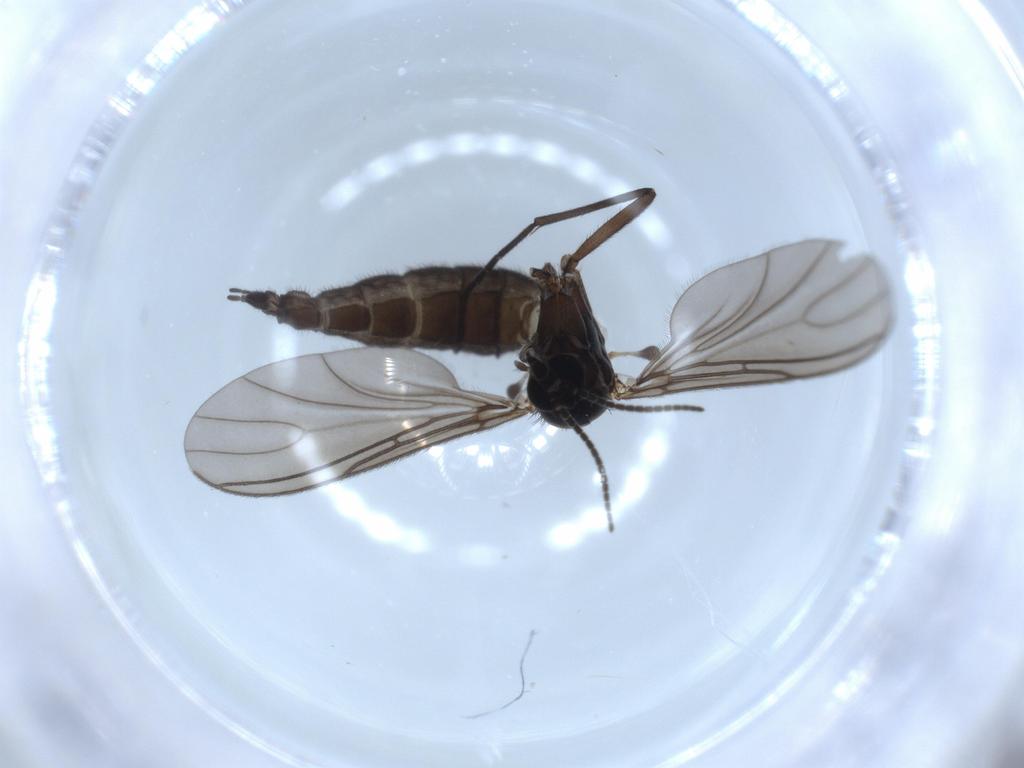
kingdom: Animalia
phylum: Arthropoda
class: Insecta
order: Diptera
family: Sciaridae
